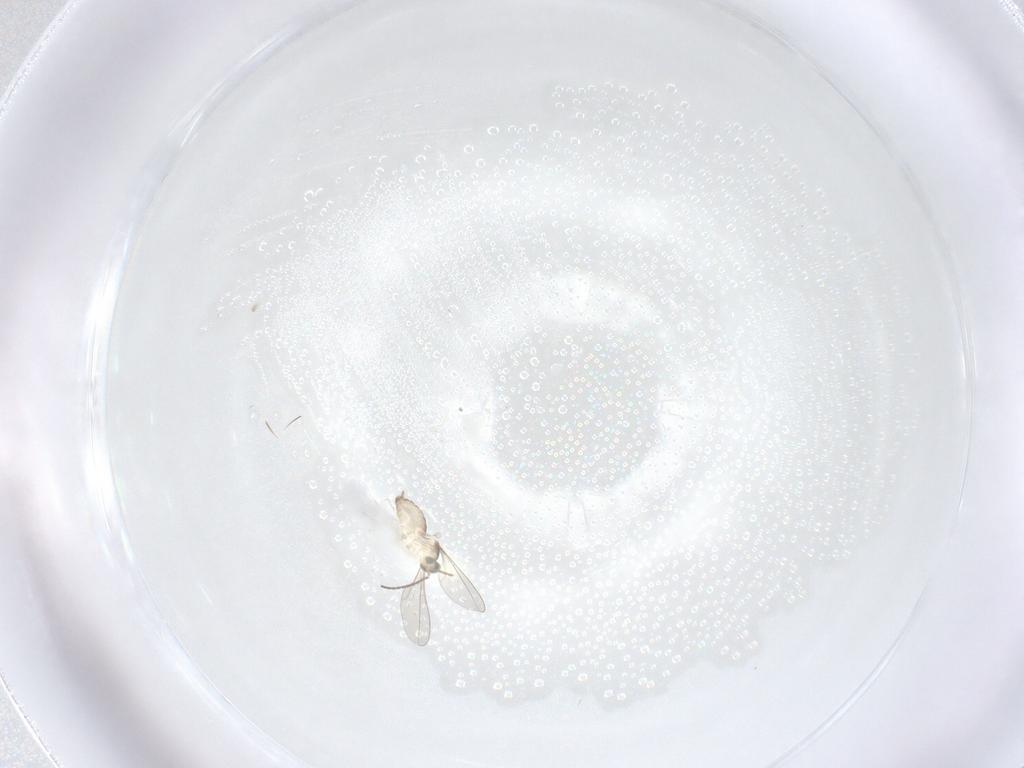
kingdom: Animalia
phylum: Arthropoda
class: Insecta
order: Diptera
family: Cecidomyiidae
